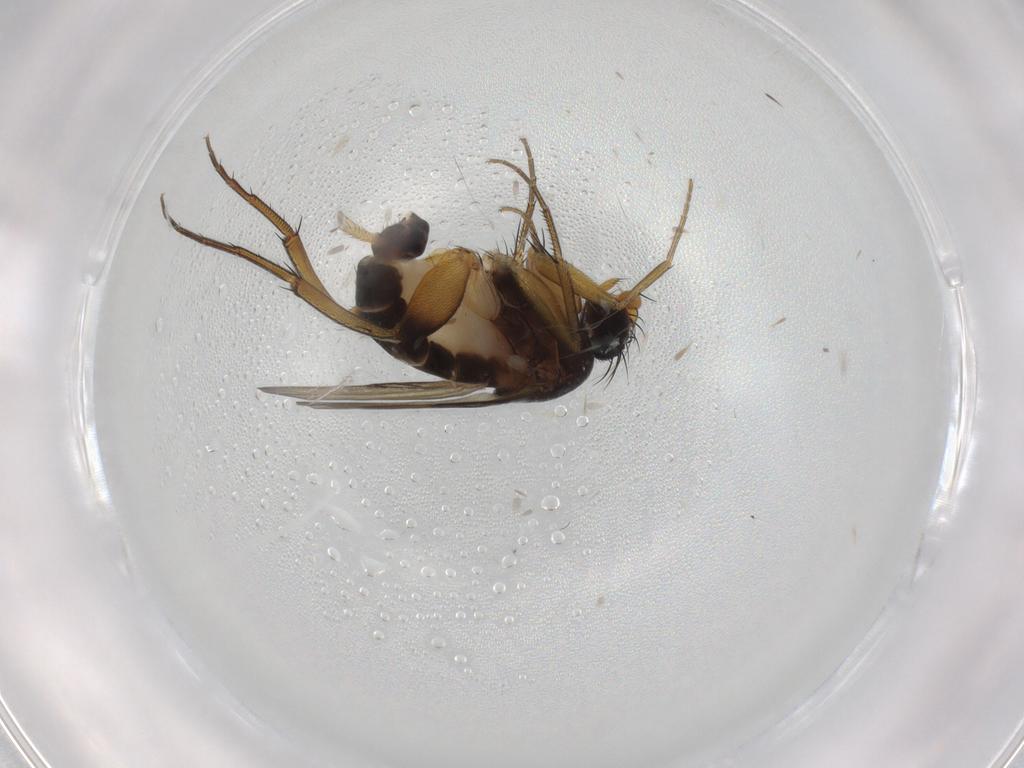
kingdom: Animalia
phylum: Arthropoda
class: Insecta
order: Diptera
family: Phoridae
